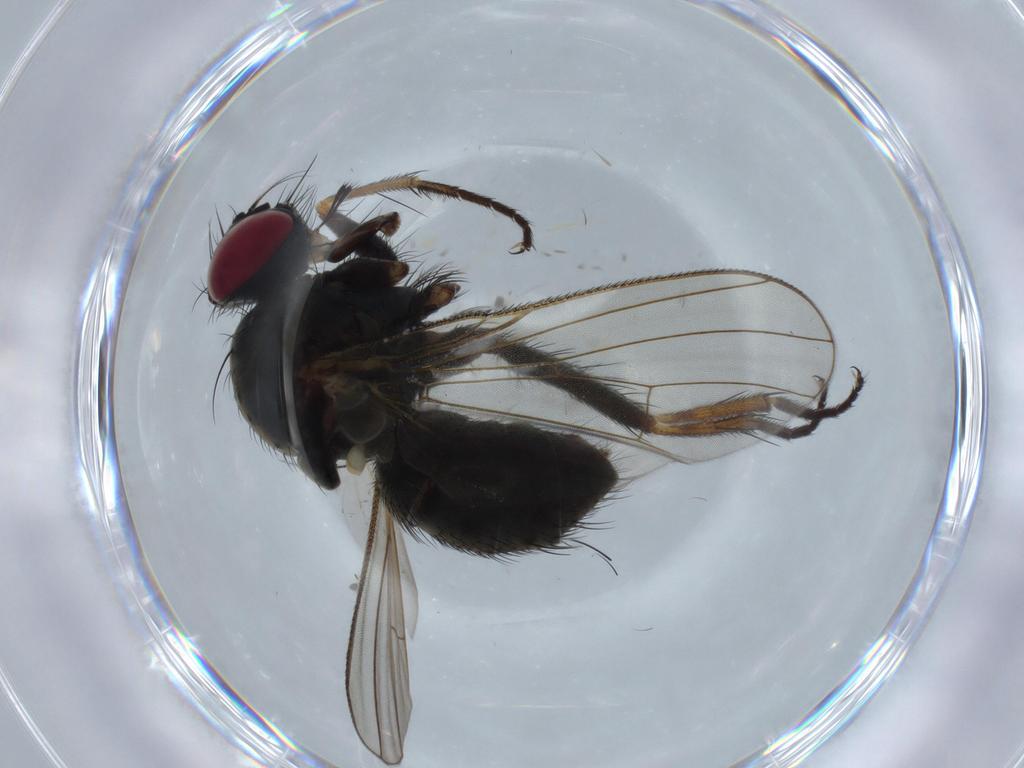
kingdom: Animalia
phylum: Arthropoda
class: Insecta
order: Diptera
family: Muscidae
